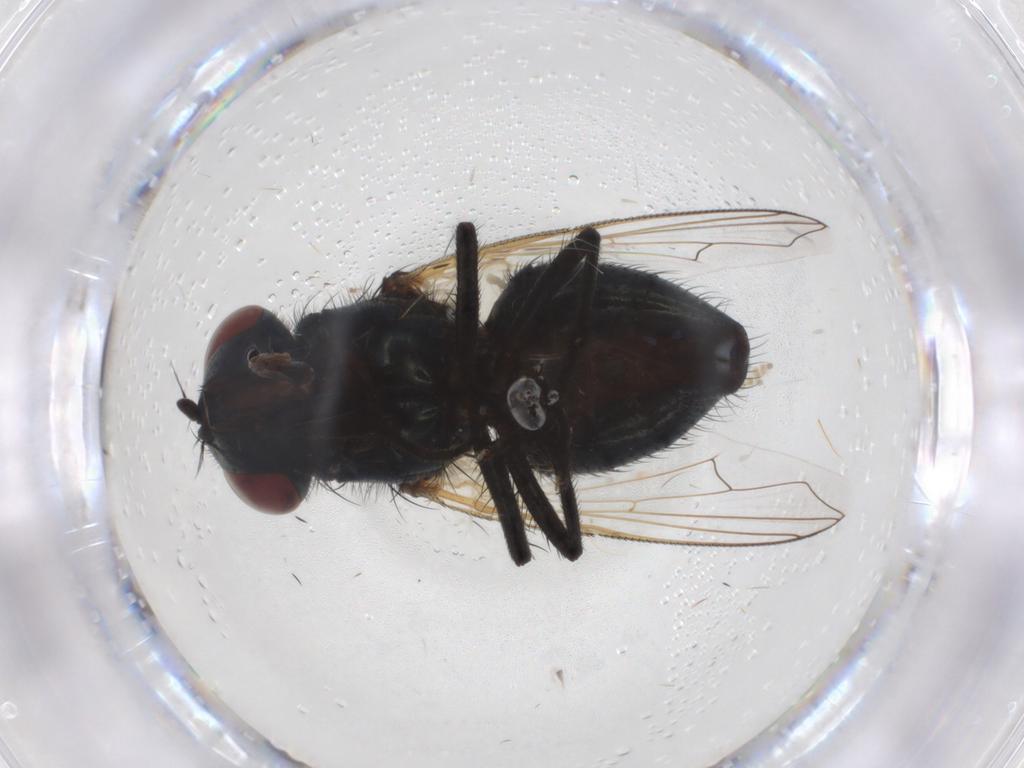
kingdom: Animalia
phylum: Arthropoda
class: Insecta
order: Diptera
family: Muscidae
